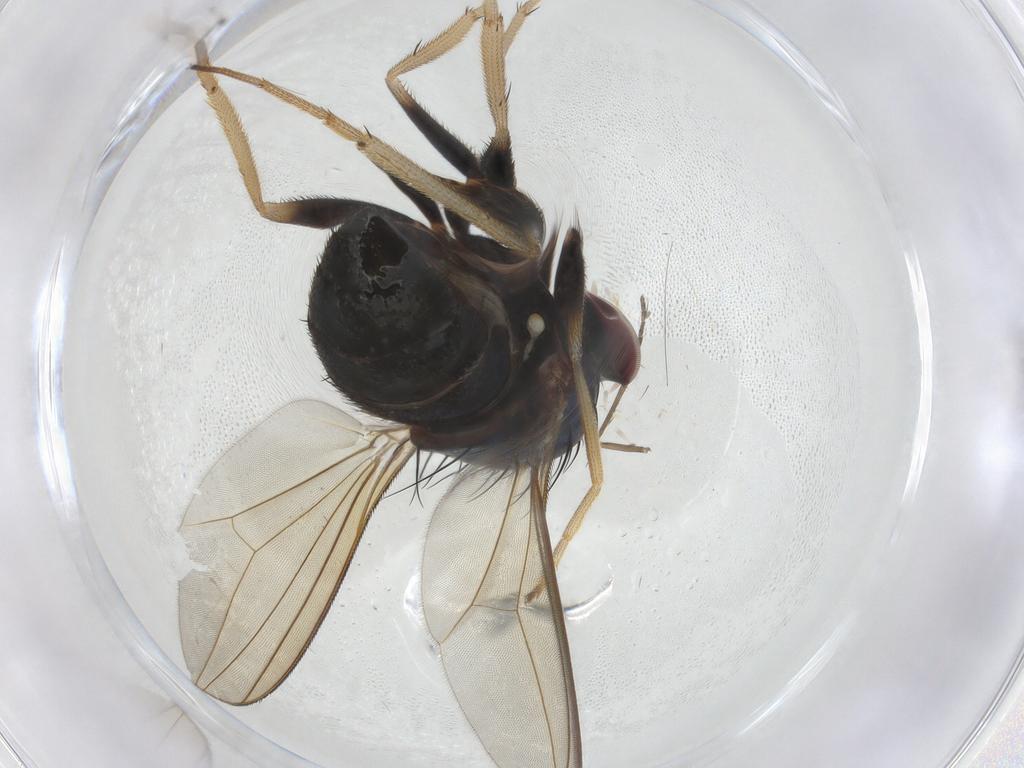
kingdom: Animalia
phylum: Arthropoda
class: Insecta
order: Diptera
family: Dolichopodidae
